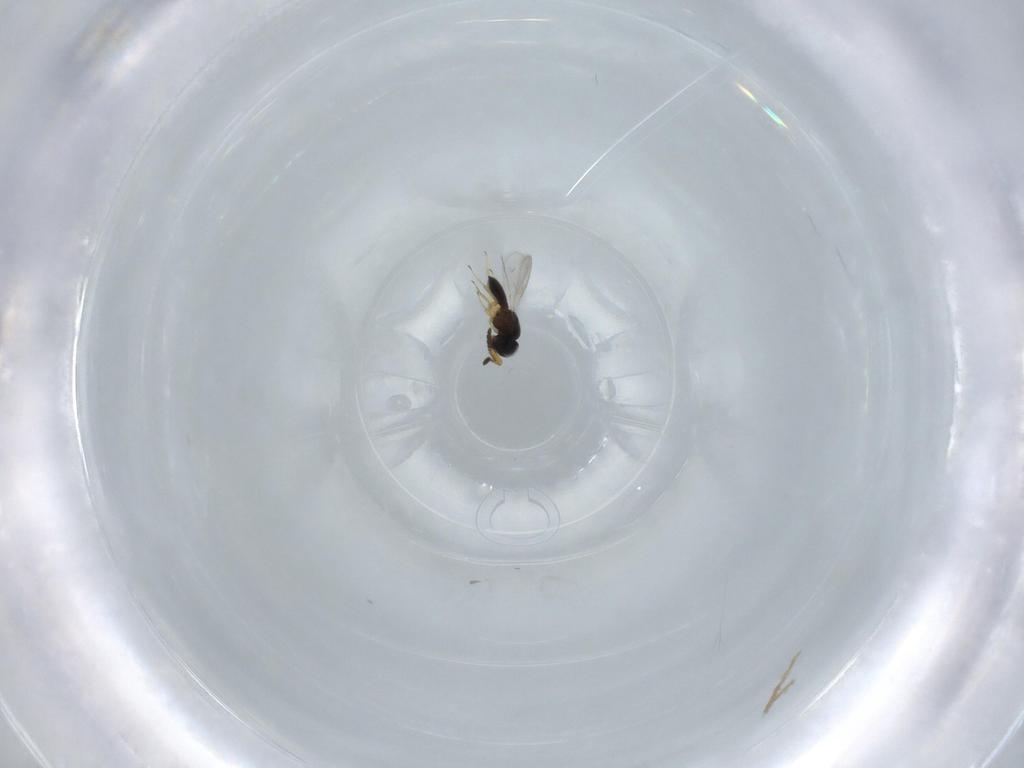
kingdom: Animalia
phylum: Arthropoda
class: Insecta
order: Hymenoptera
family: Scelionidae
